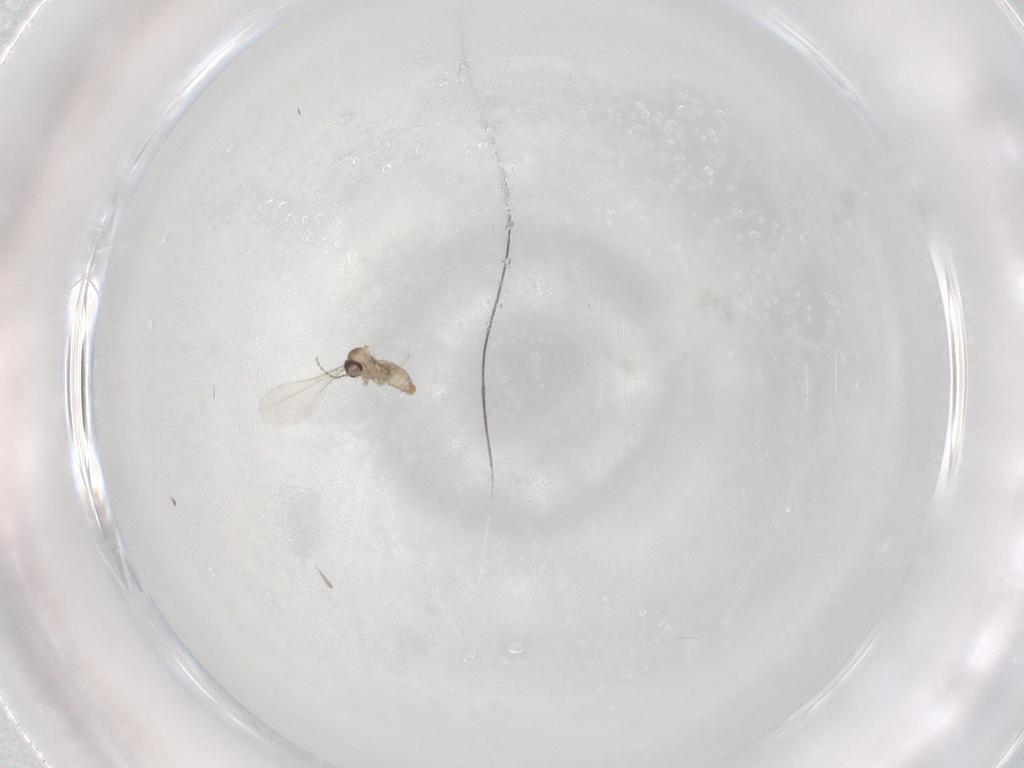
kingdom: Animalia
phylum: Arthropoda
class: Insecta
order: Diptera
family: Cecidomyiidae
